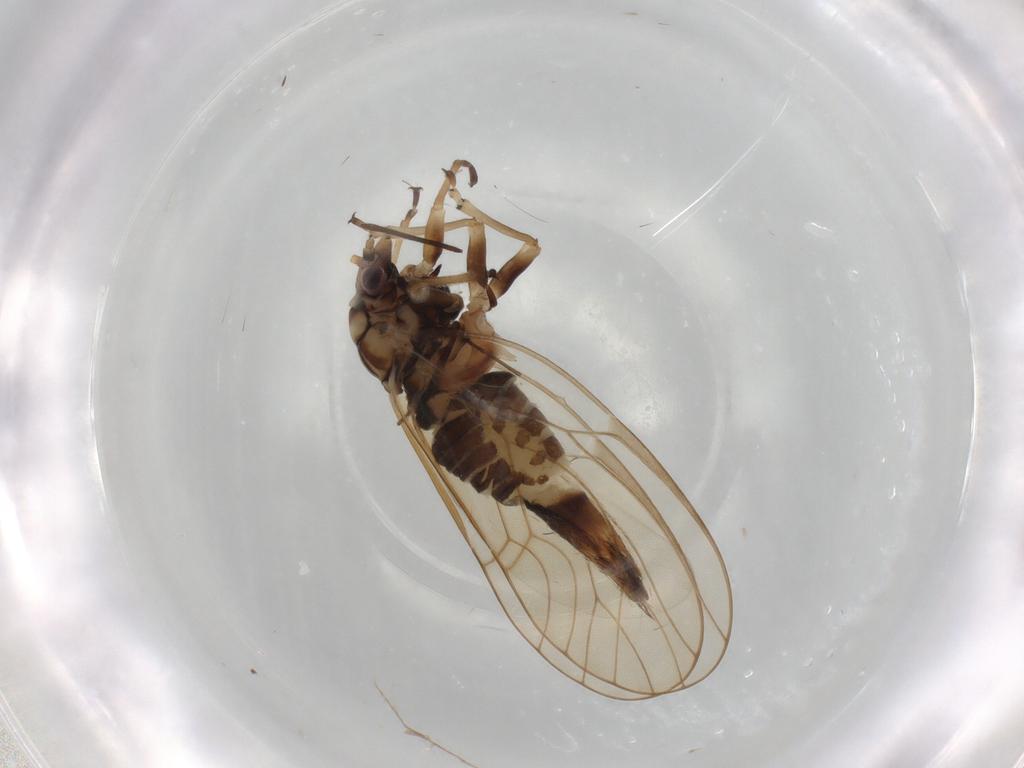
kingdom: Animalia
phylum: Arthropoda
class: Insecta
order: Hemiptera
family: Psyllidae
